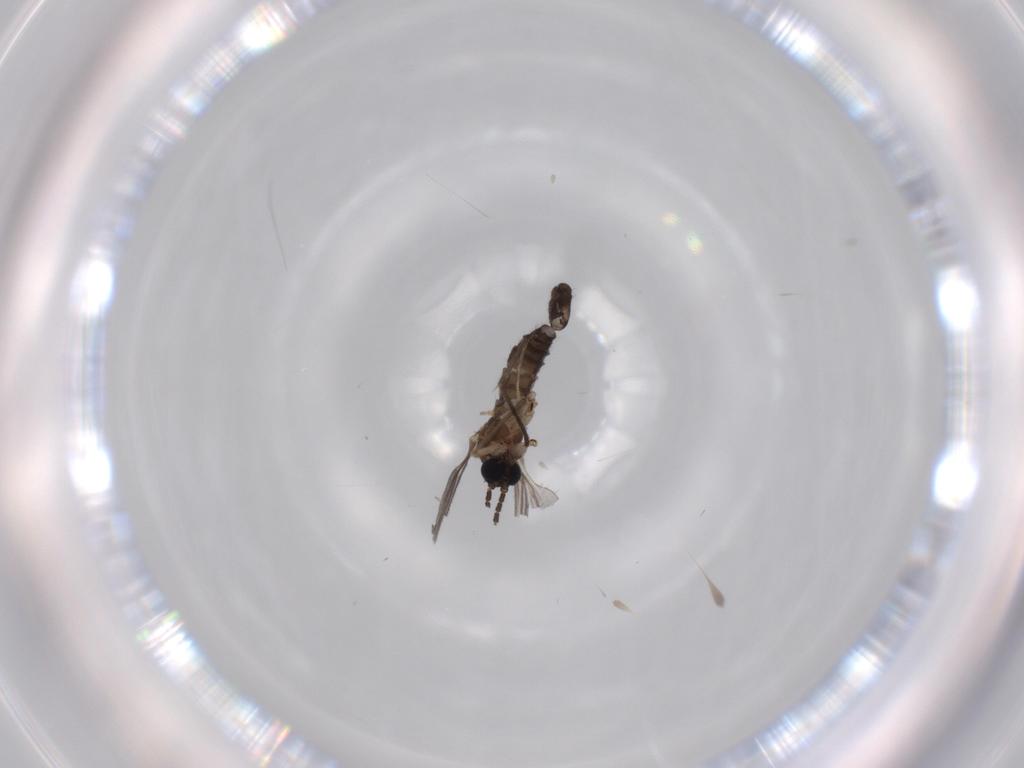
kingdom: Animalia
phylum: Arthropoda
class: Insecta
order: Diptera
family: Sciaridae
